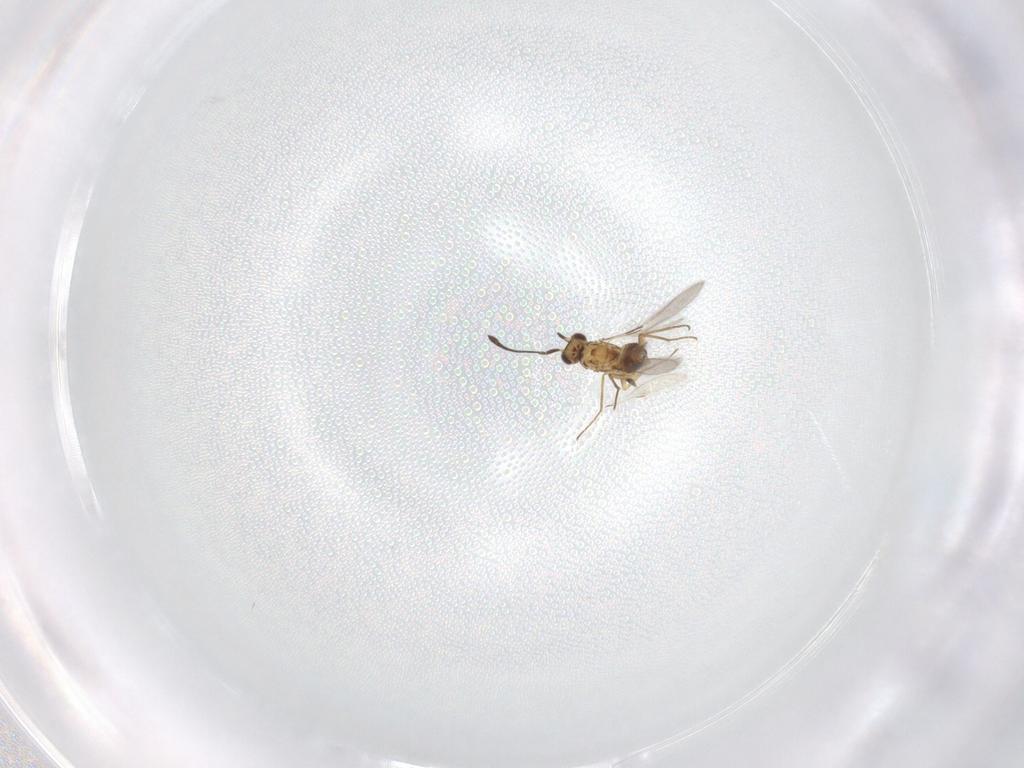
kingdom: Animalia
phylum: Arthropoda
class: Insecta
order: Hymenoptera
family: Mymaridae
